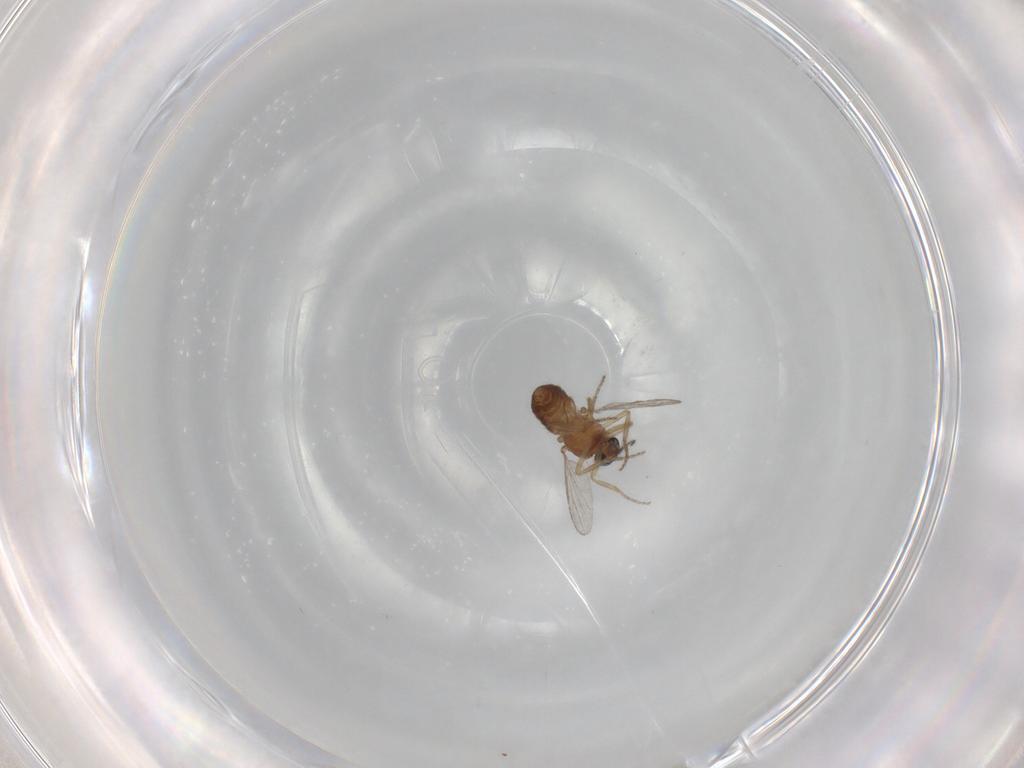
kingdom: Animalia
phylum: Arthropoda
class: Insecta
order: Diptera
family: Ceratopogonidae
